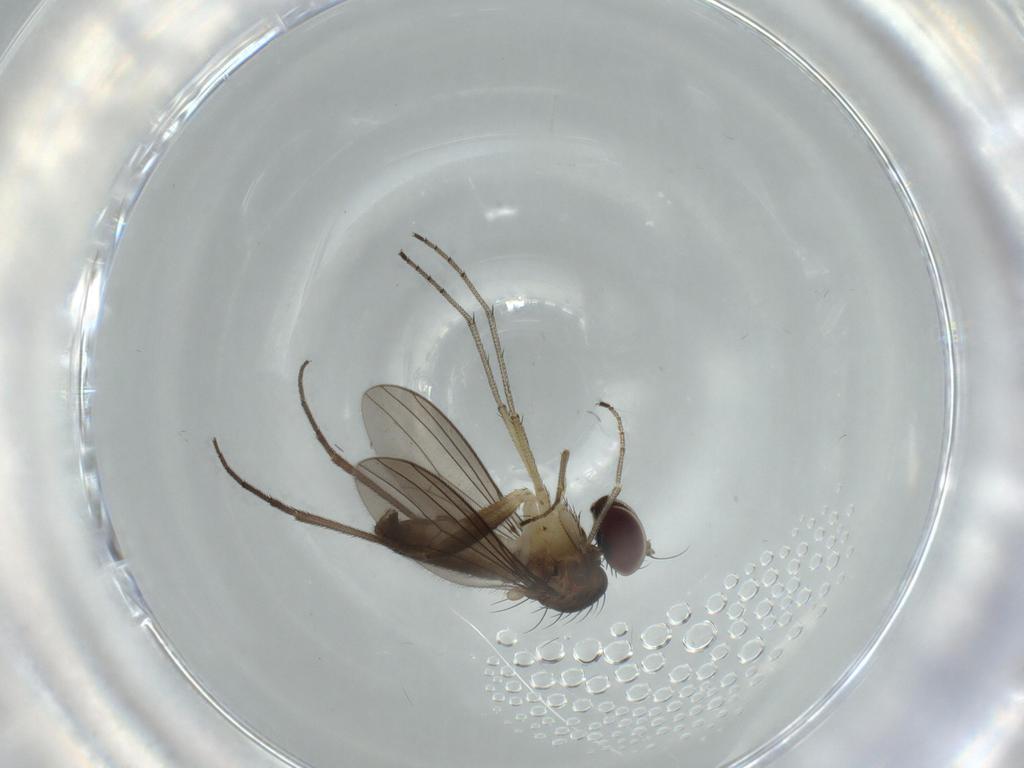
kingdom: Animalia
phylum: Arthropoda
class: Insecta
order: Diptera
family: Dolichopodidae
